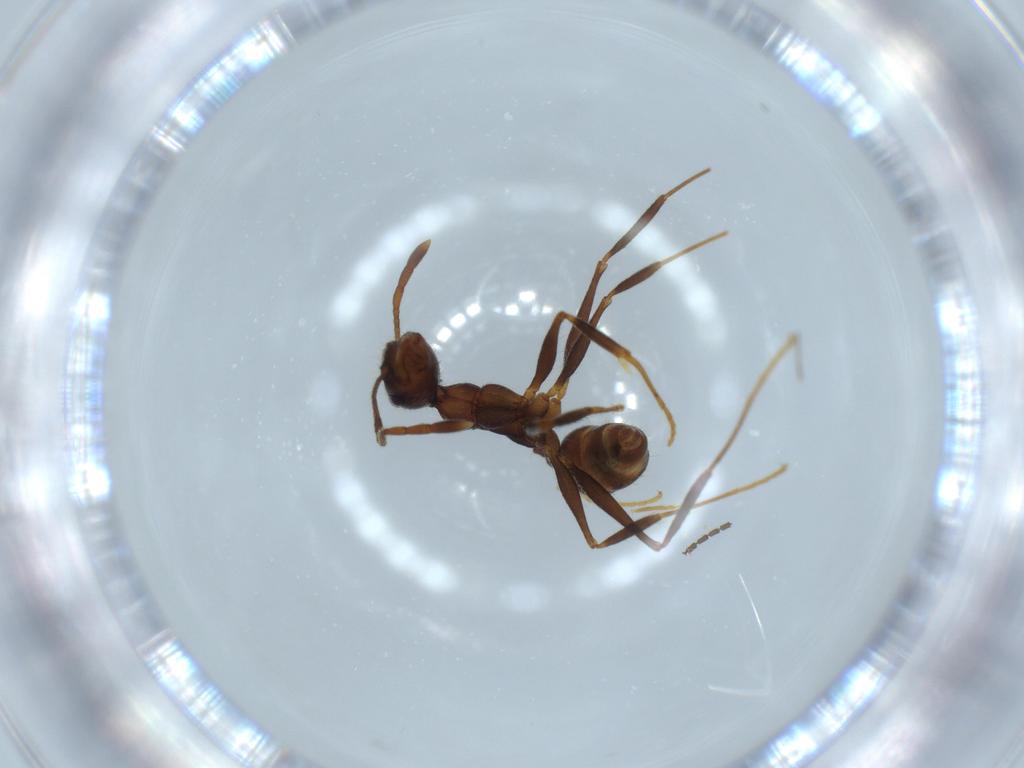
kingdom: Animalia
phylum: Arthropoda
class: Insecta
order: Hymenoptera
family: Formicidae
